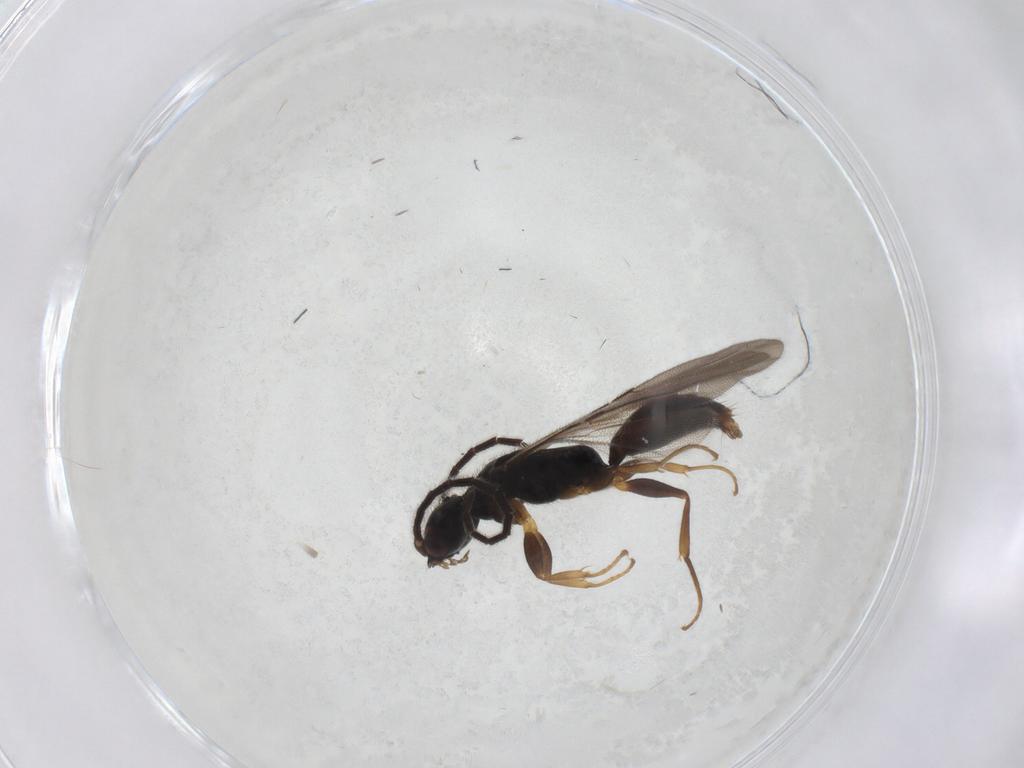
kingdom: Animalia
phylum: Arthropoda
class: Insecta
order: Hymenoptera
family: Bethylidae
